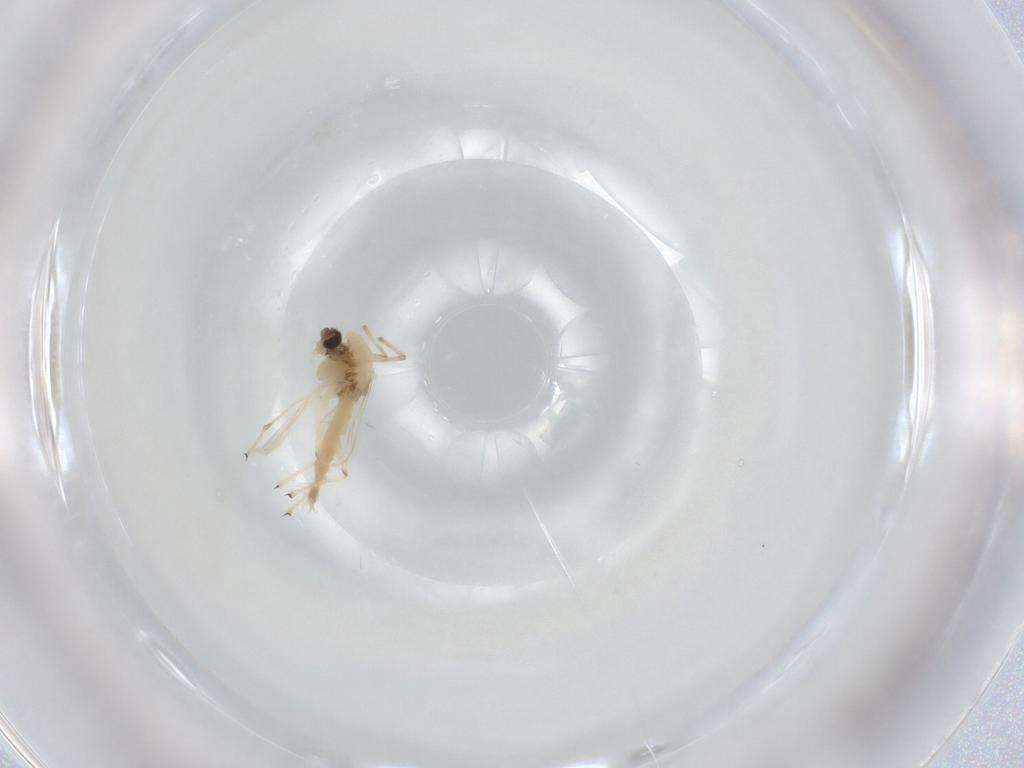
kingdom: Animalia
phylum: Arthropoda
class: Insecta
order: Diptera
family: Chironomidae
